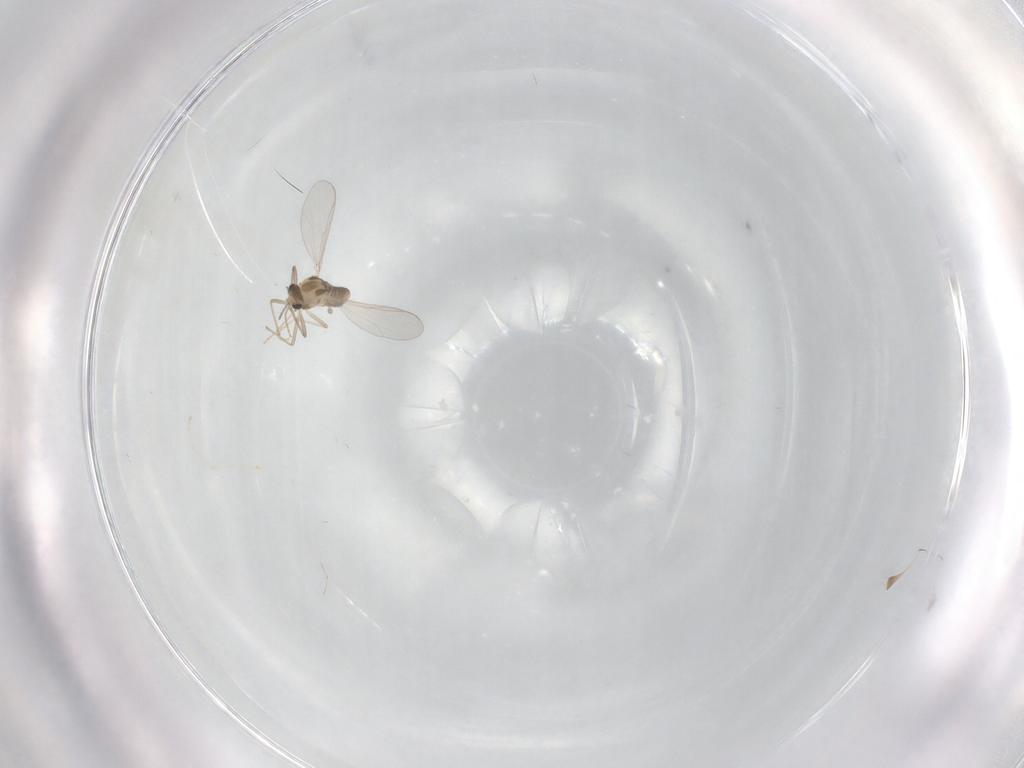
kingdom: Animalia
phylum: Arthropoda
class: Insecta
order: Diptera
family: Chironomidae
